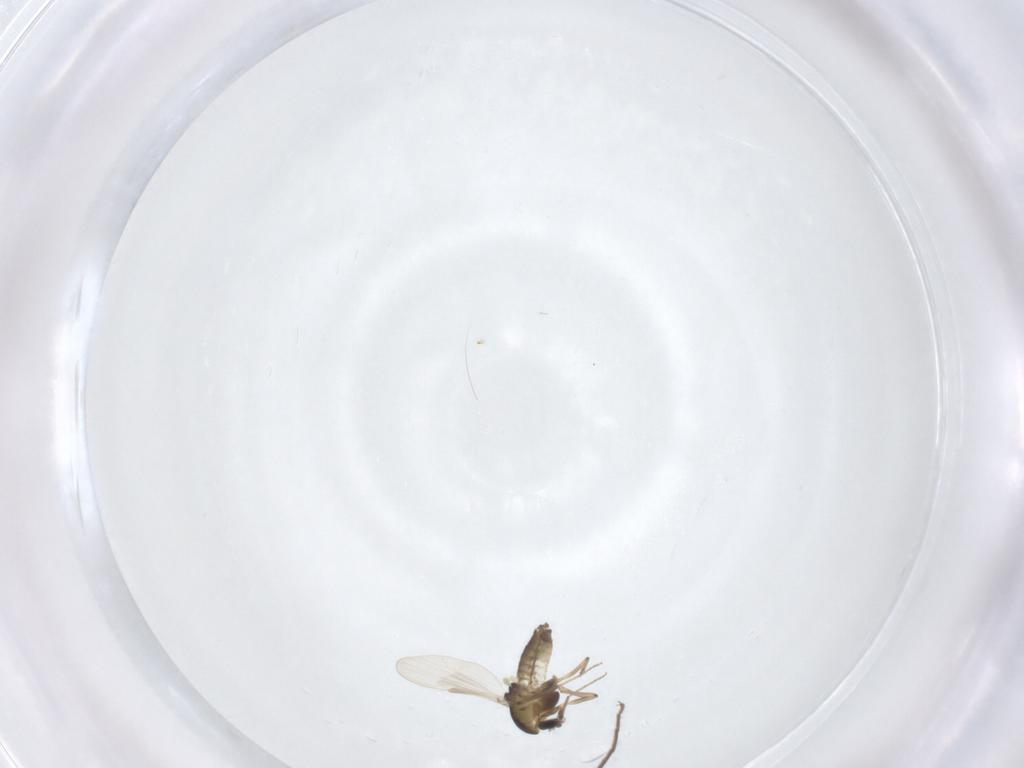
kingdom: Animalia
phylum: Arthropoda
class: Insecta
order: Diptera
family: Chironomidae
